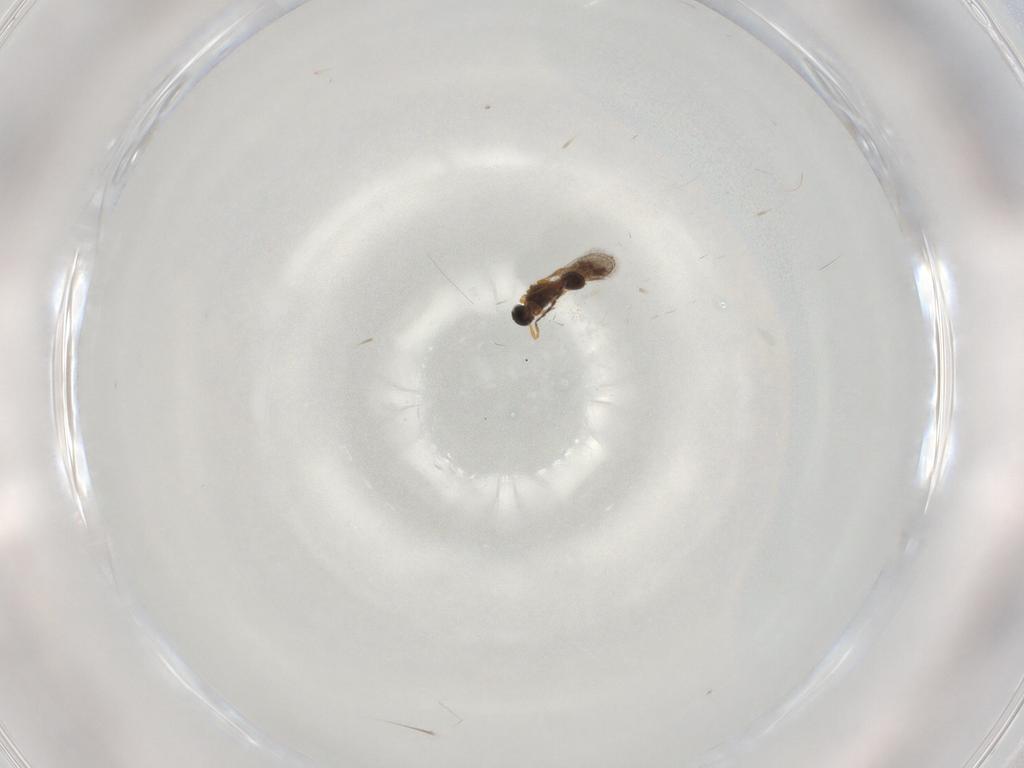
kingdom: Animalia
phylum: Arthropoda
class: Insecta
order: Hymenoptera
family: Platygastridae
